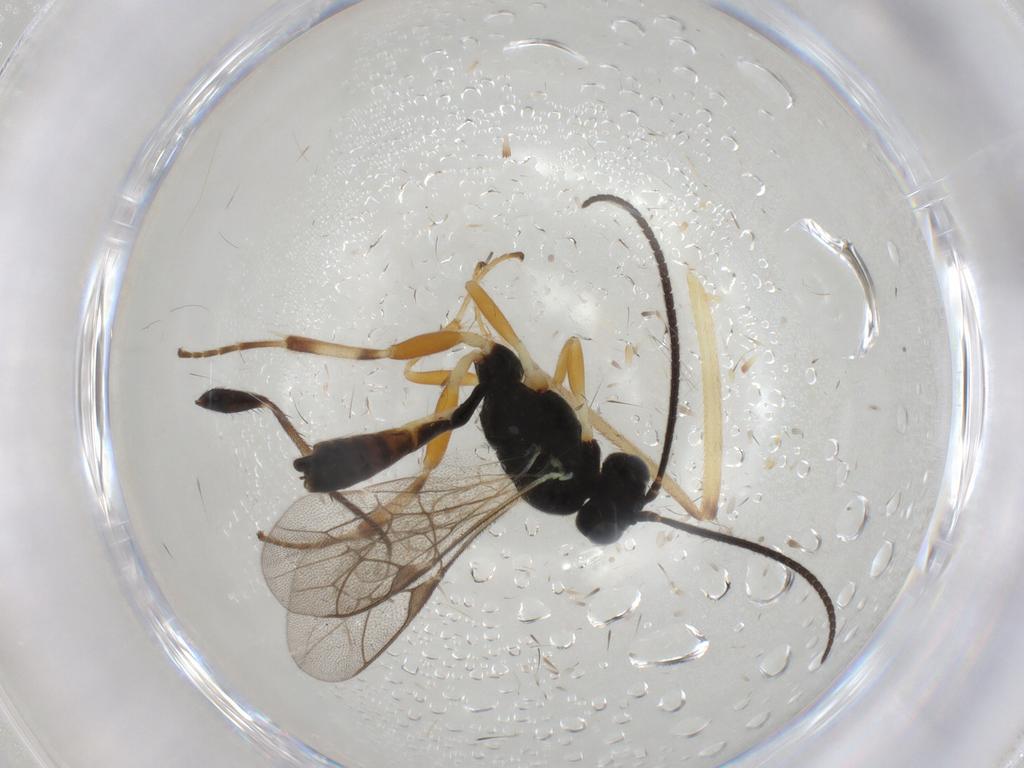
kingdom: Animalia
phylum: Arthropoda
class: Insecta
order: Hymenoptera
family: Ichneumonidae
